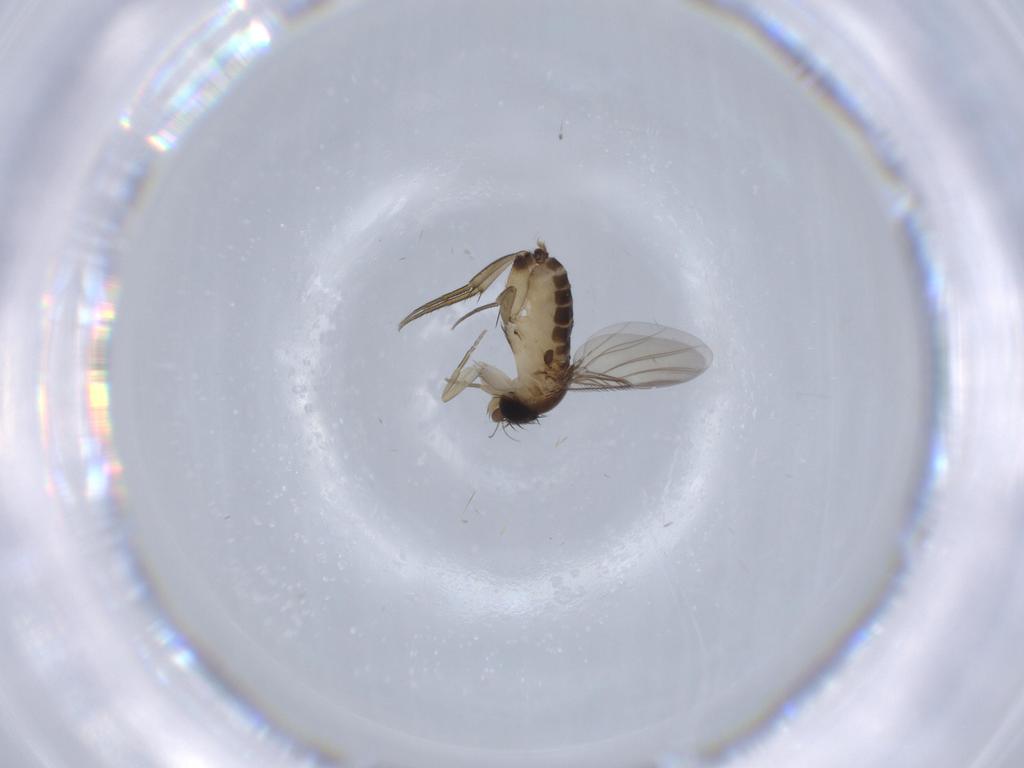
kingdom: Animalia
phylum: Arthropoda
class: Insecta
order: Diptera
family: Phoridae
